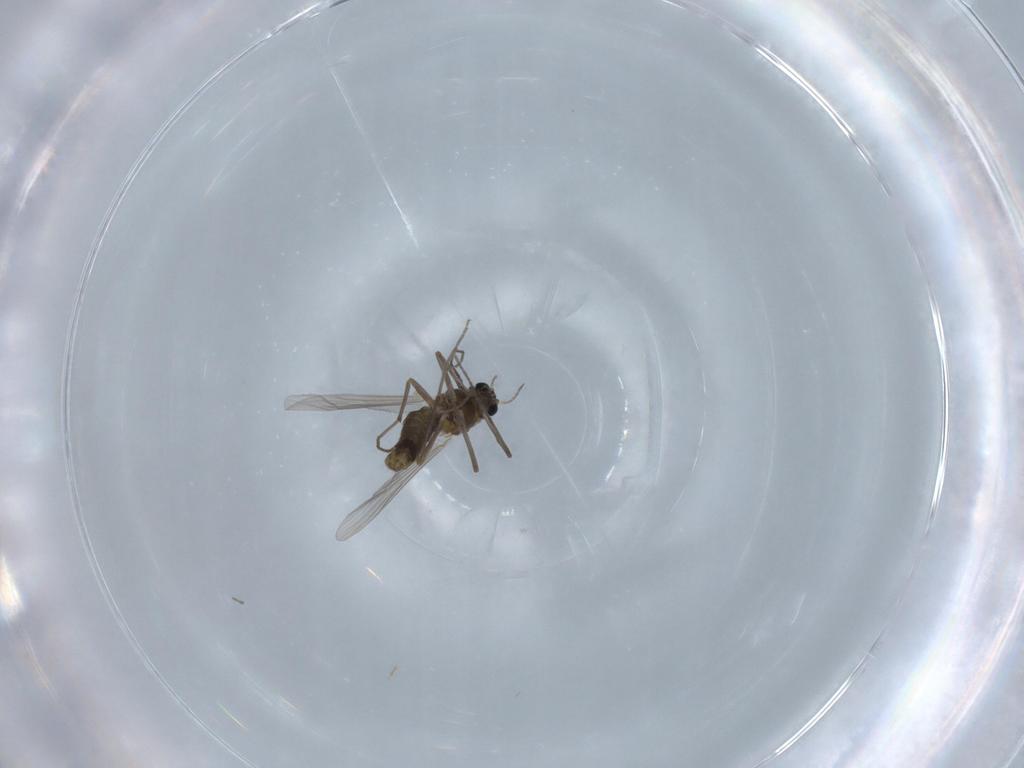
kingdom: Animalia
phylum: Arthropoda
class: Insecta
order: Diptera
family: Chironomidae
